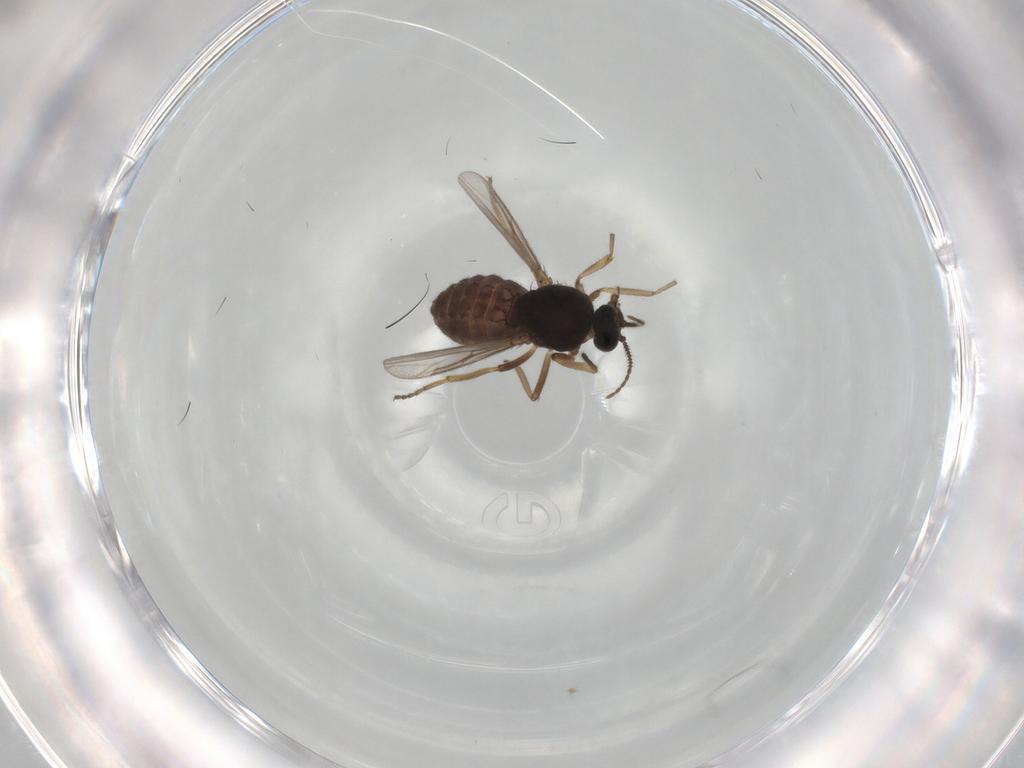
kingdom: Animalia
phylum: Arthropoda
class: Insecta
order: Diptera
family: Ceratopogonidae
